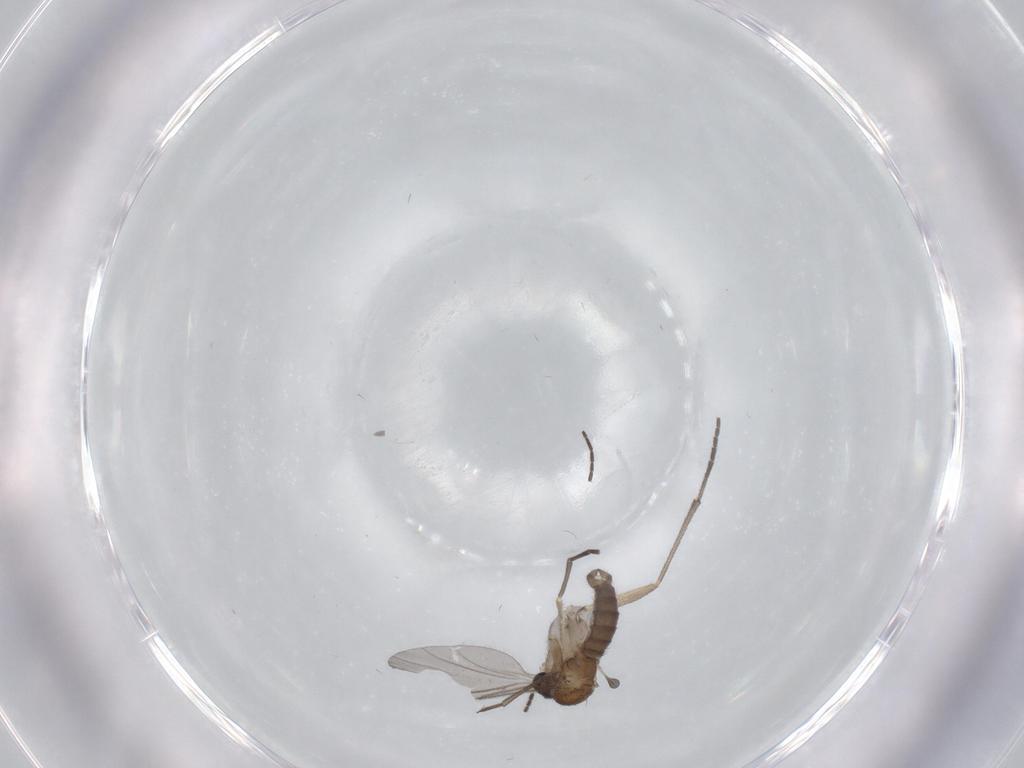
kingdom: Animalia
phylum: Arthropoda
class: Insecta
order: Diptera
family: Sciaridae
